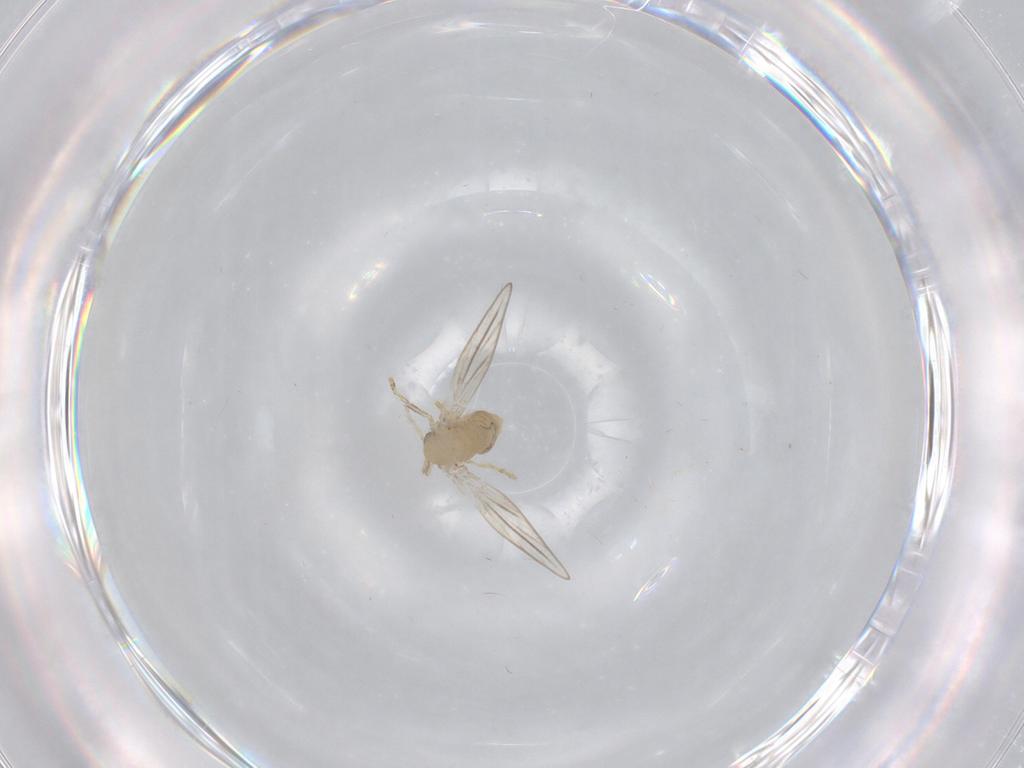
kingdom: Animalia
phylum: Arthropoda
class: Insecta
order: Diptera
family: Psychodidae
